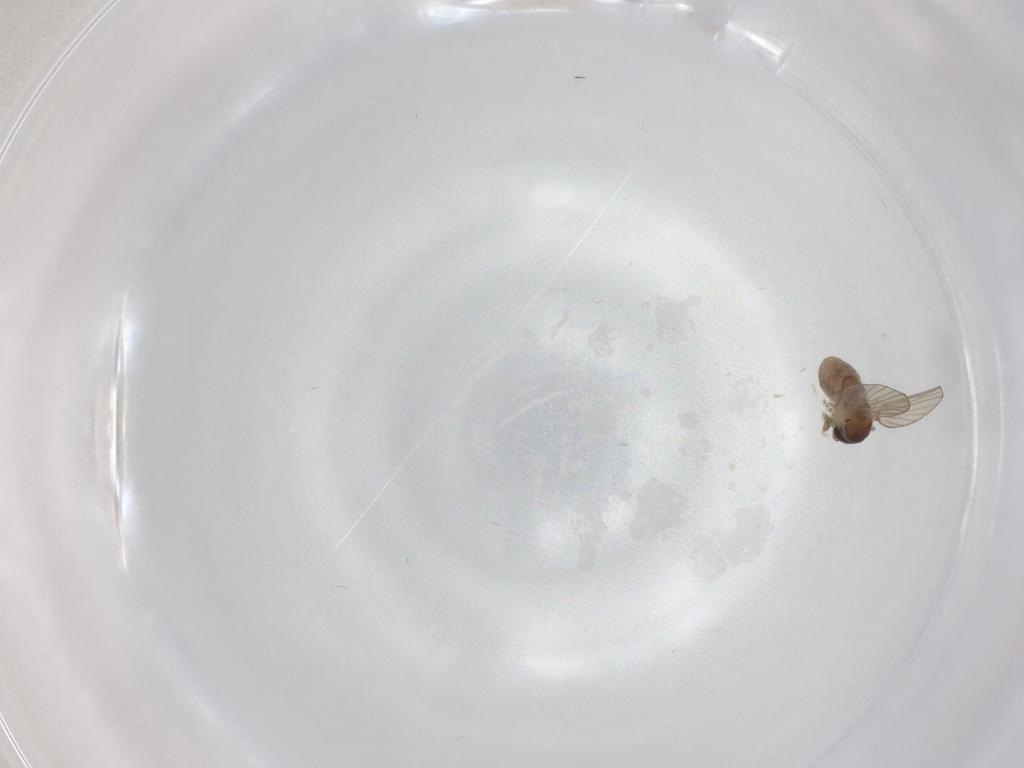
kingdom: Animalia
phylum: Arthropoda
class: Insecta
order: Diptera
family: Psychodidae
